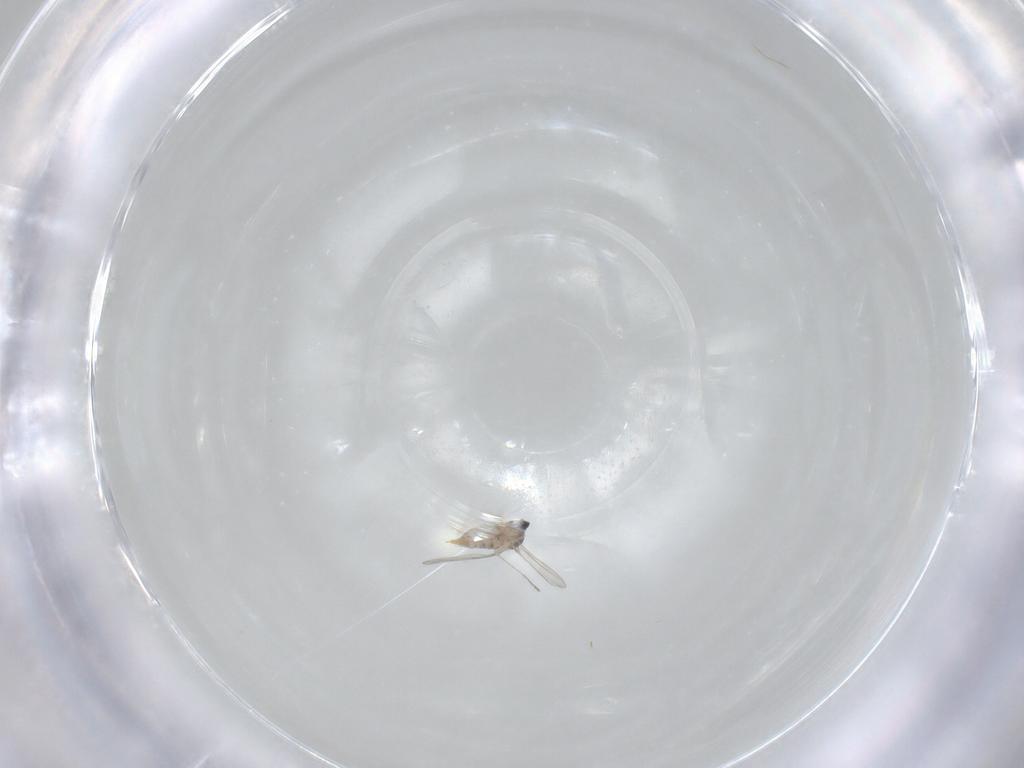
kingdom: Animalia
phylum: Arthropoda
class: Insecta
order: Diptera
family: Cecidomyiidae
